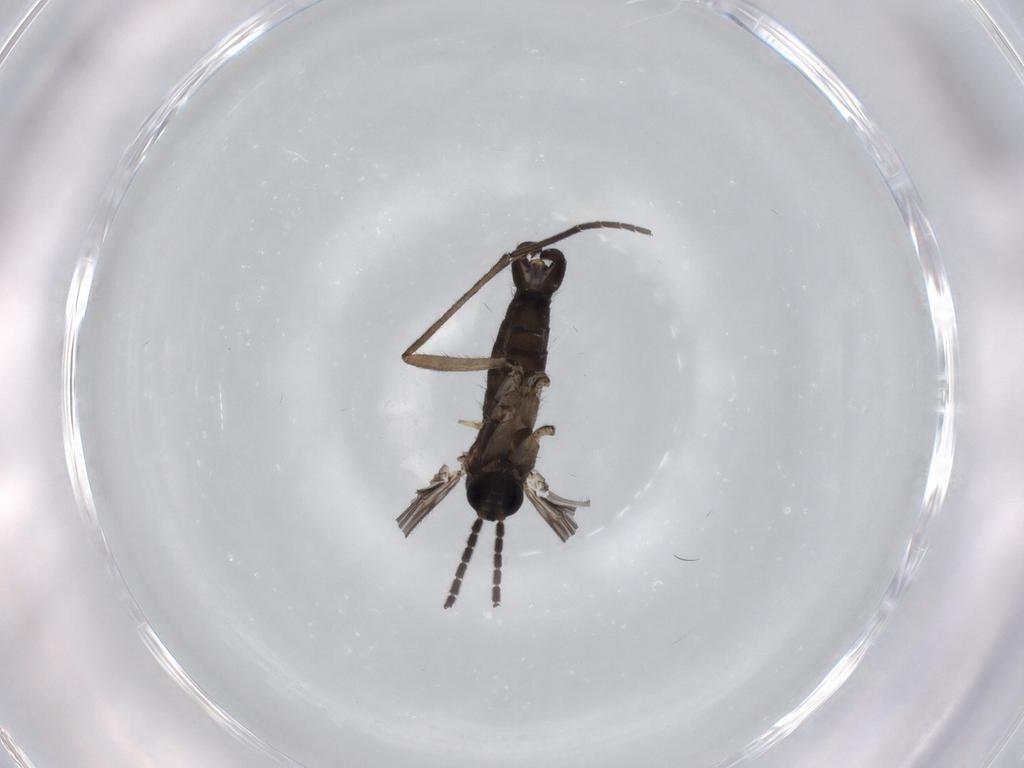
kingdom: Animalia
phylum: Arthropoda
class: Insecta
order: Diptera
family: Sciaridae
